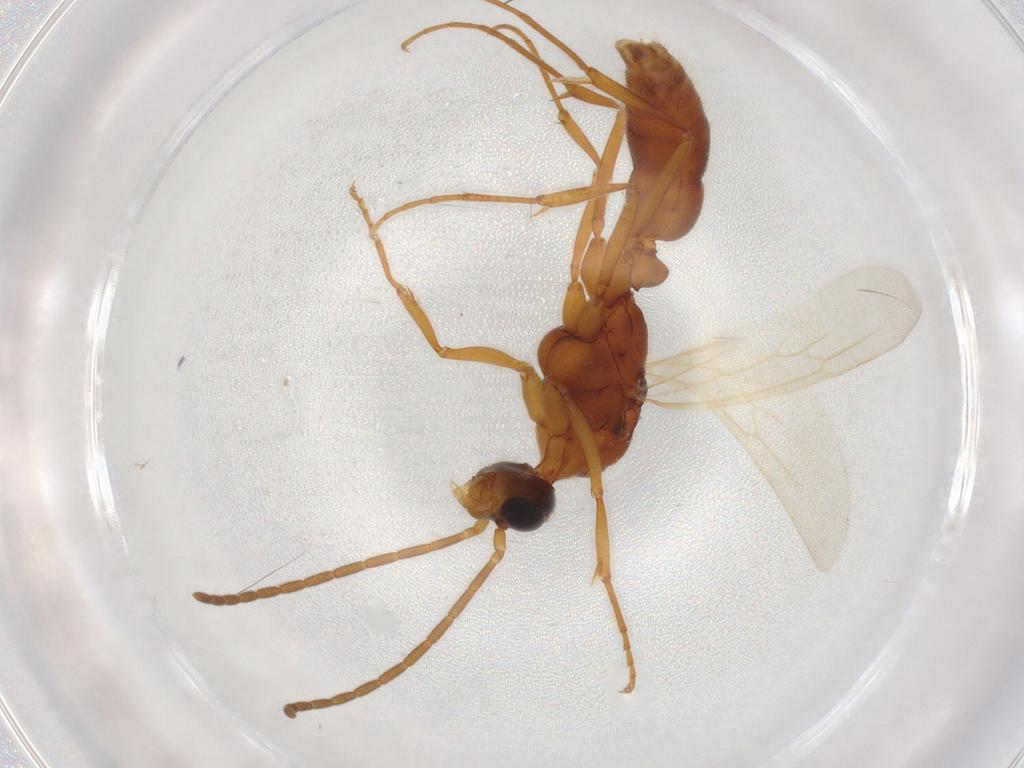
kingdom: Animalia
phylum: Arthropoda
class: Insecta
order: Hymenoptera
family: Formicidae
